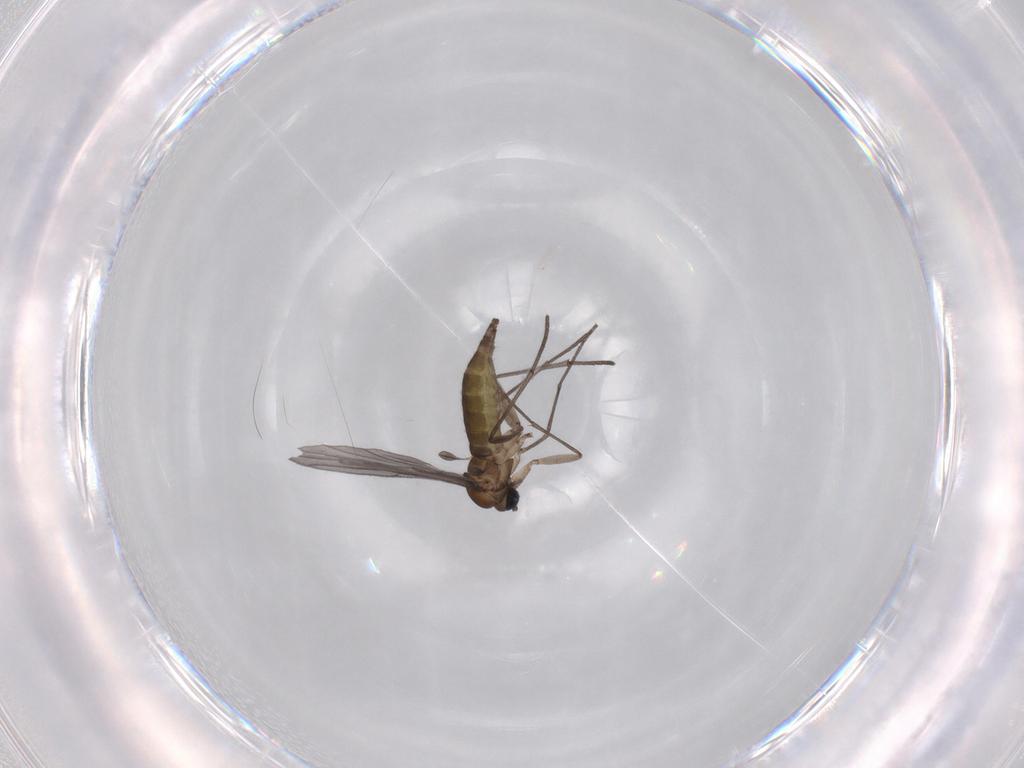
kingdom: Animalia
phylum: Arthropoda
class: Insecta
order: Diptera
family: Sciaridae
